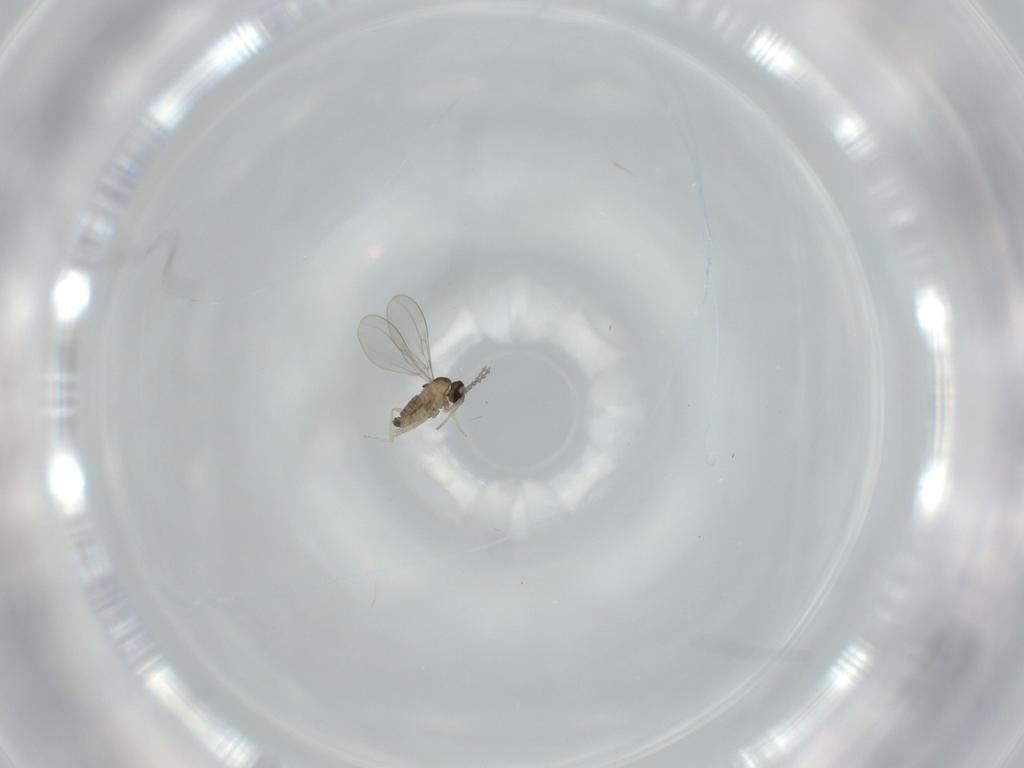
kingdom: Animalia
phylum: Arthropoda
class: Insecta
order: Diptera
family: Cecidomyiidae
